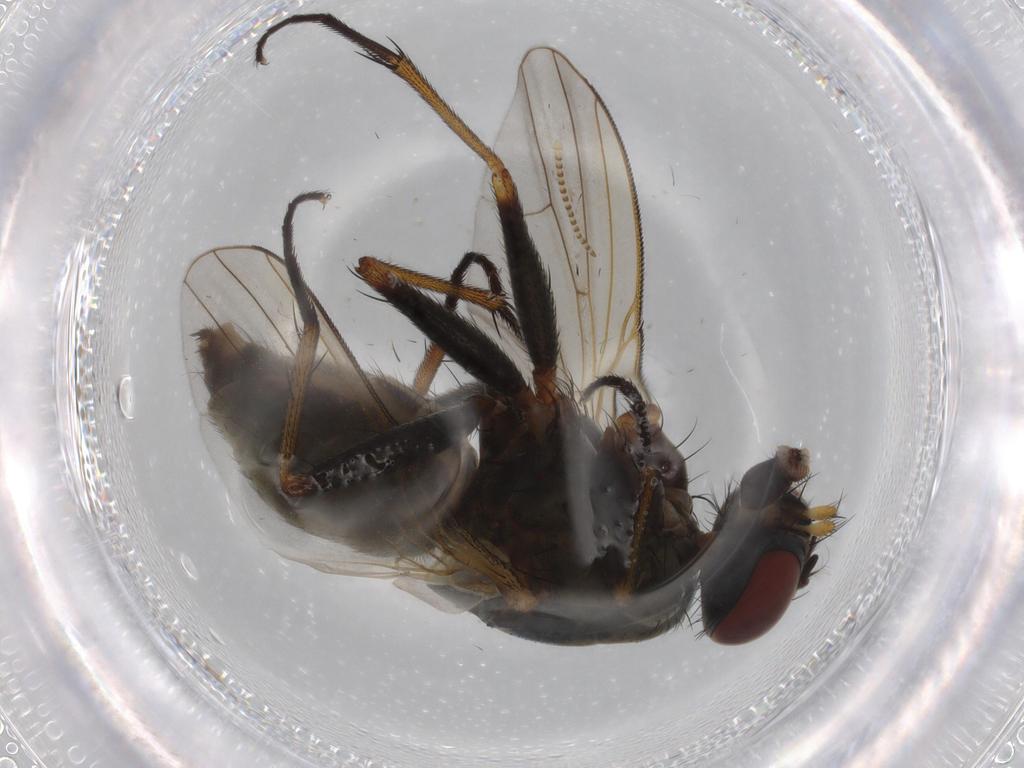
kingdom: Animalia
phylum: Arthropoda
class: Insecta
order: Diptera
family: Muscidae
